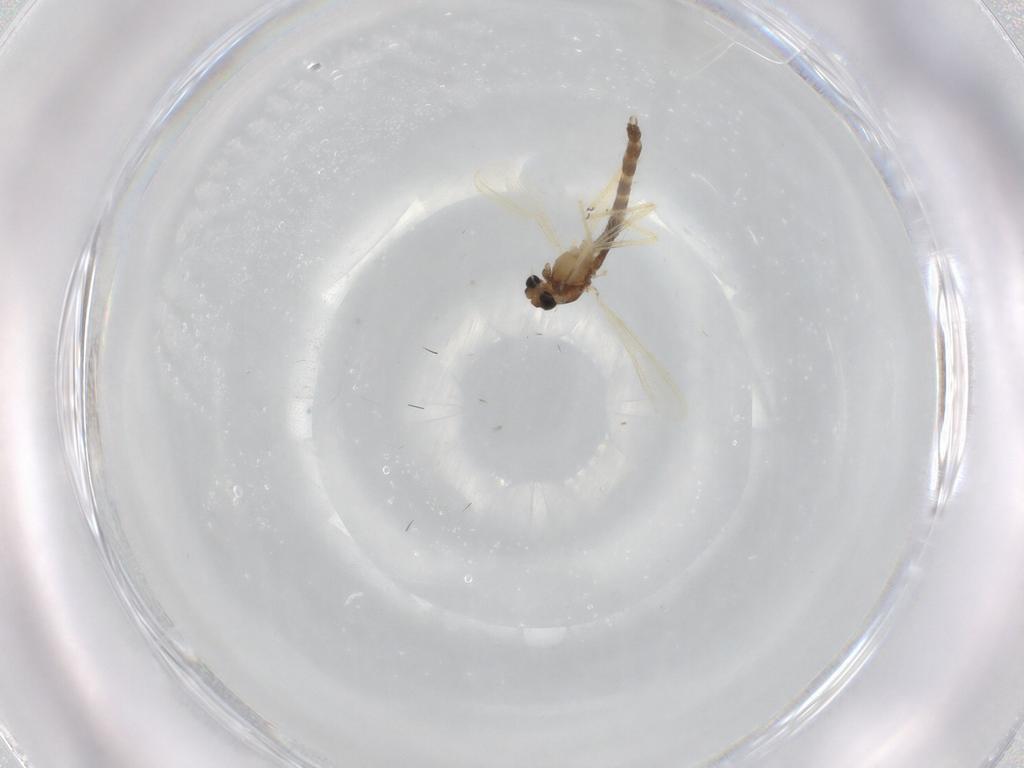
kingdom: Animalia
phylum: Arthropoda
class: Insecta
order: Diptera
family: Chironomidae
